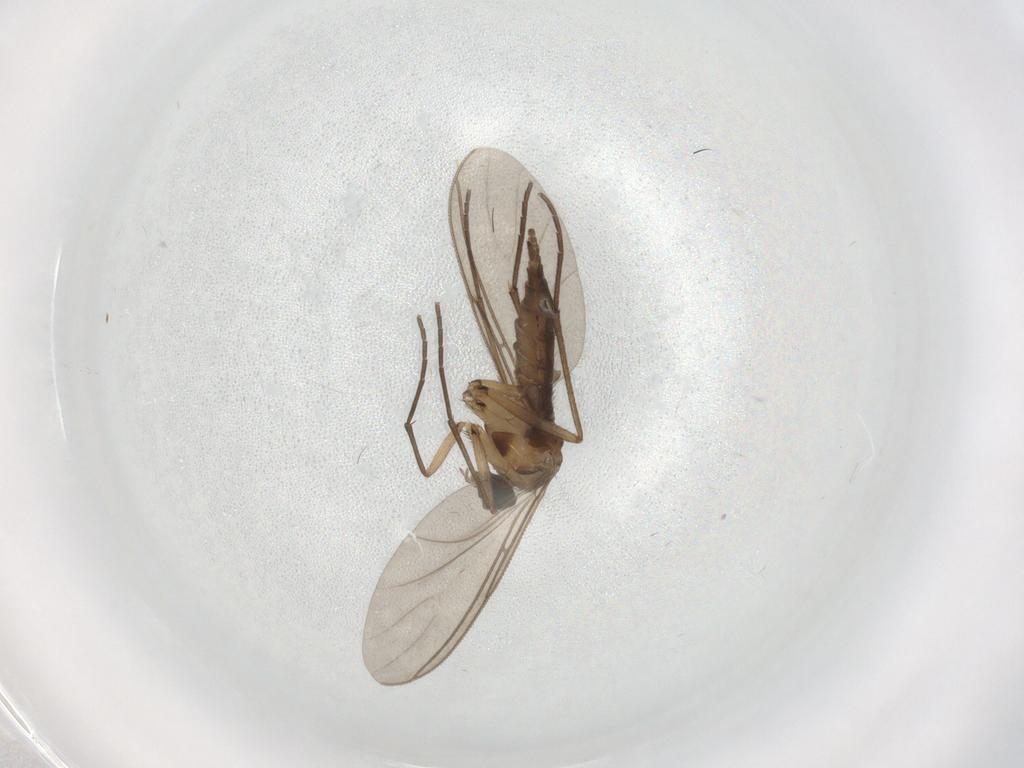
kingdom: Animalia
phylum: Arthropoda
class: Insecta
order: Diptera
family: Sciaridae
